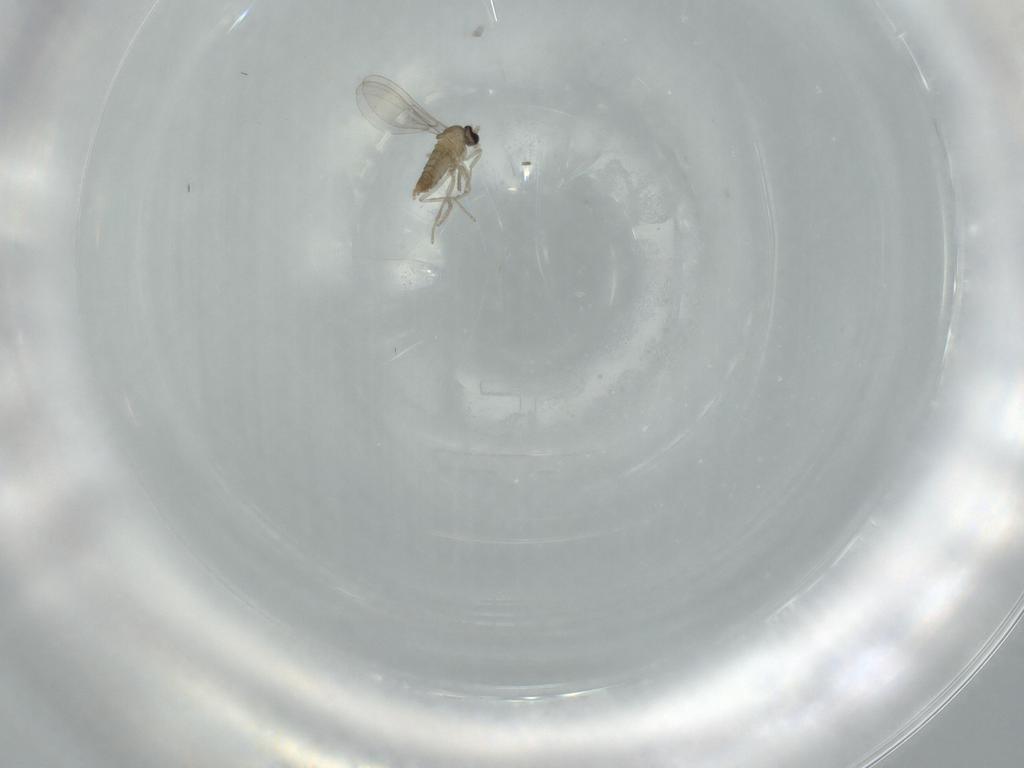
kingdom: Animalia
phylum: Arthropoda
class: Insecta
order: Diptera
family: Cecidomyiidae
